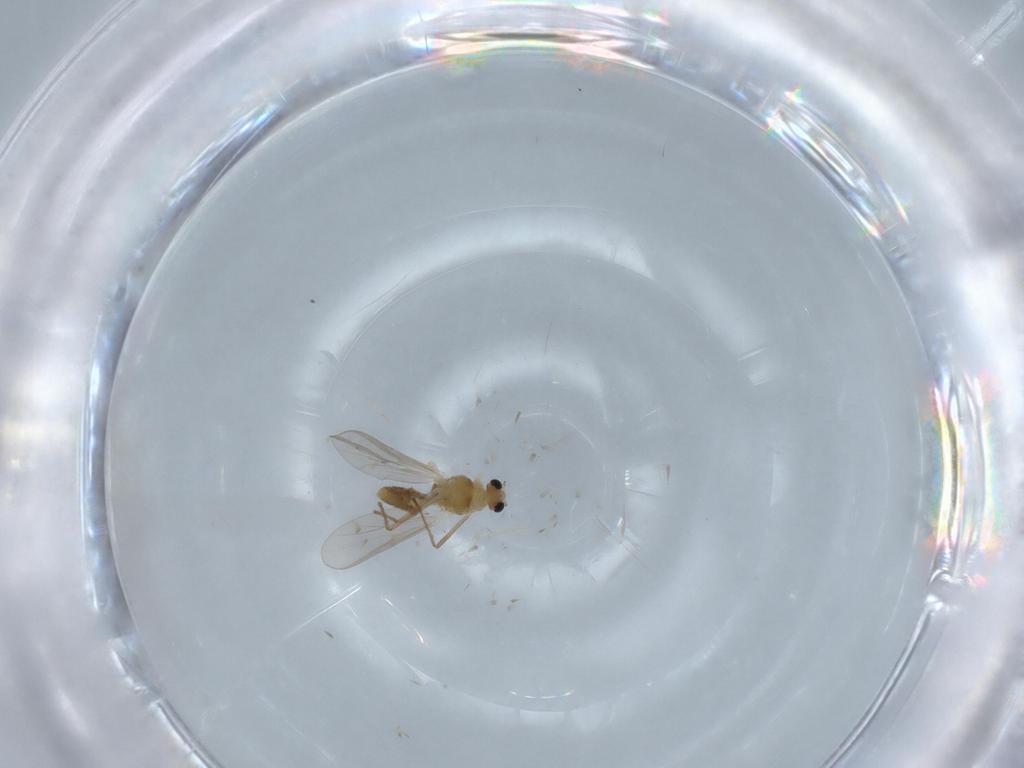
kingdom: Animalia
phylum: Arthropoda
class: Insecta
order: Diptera
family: Chironomidae
